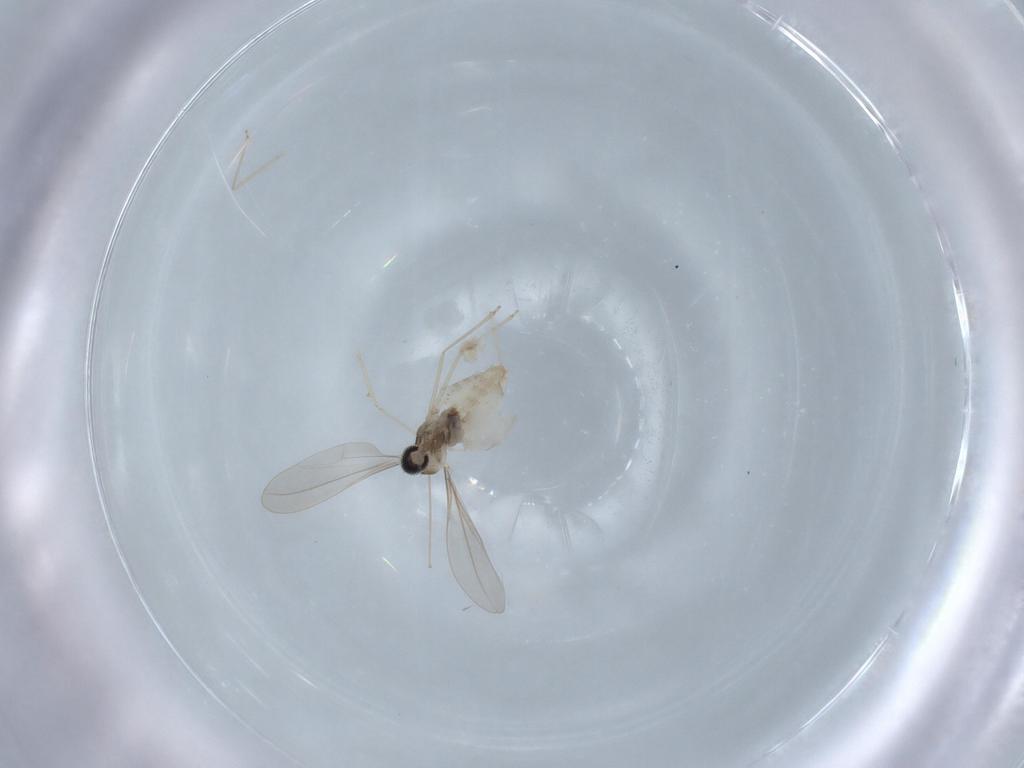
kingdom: Animalia
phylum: Arthropoda
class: Insecta
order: Diptera
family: Cecidomyiidae
